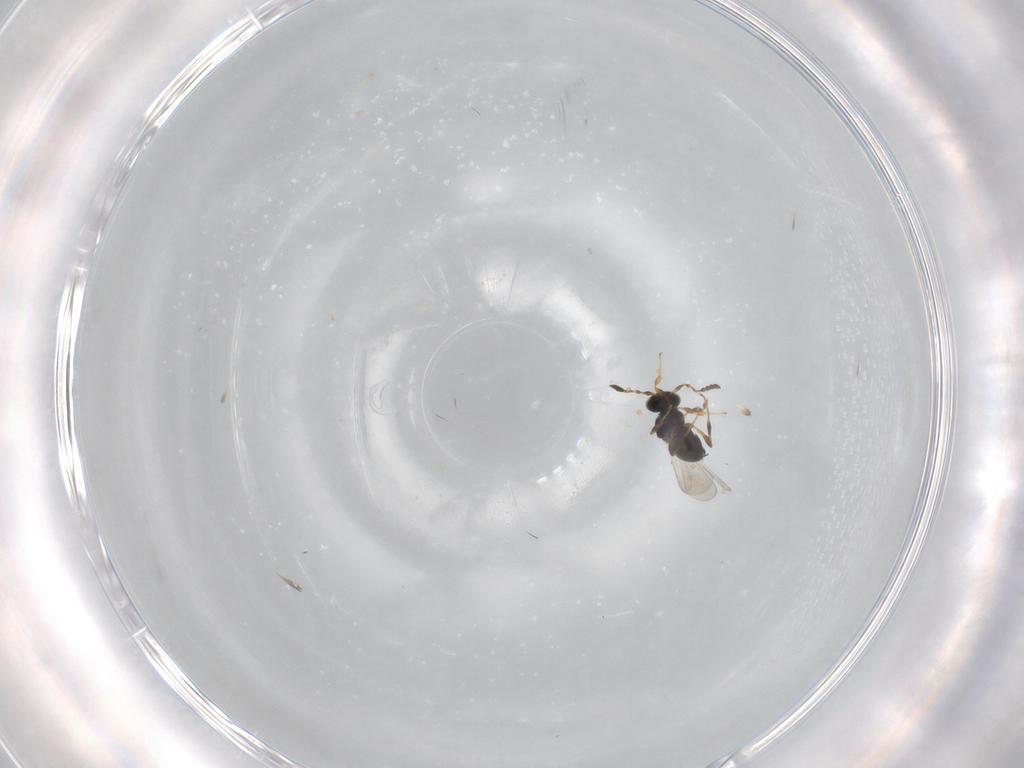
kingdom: Animalia
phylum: Arthropoda
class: Insecta
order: Hymenoptera
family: Platygastridae
